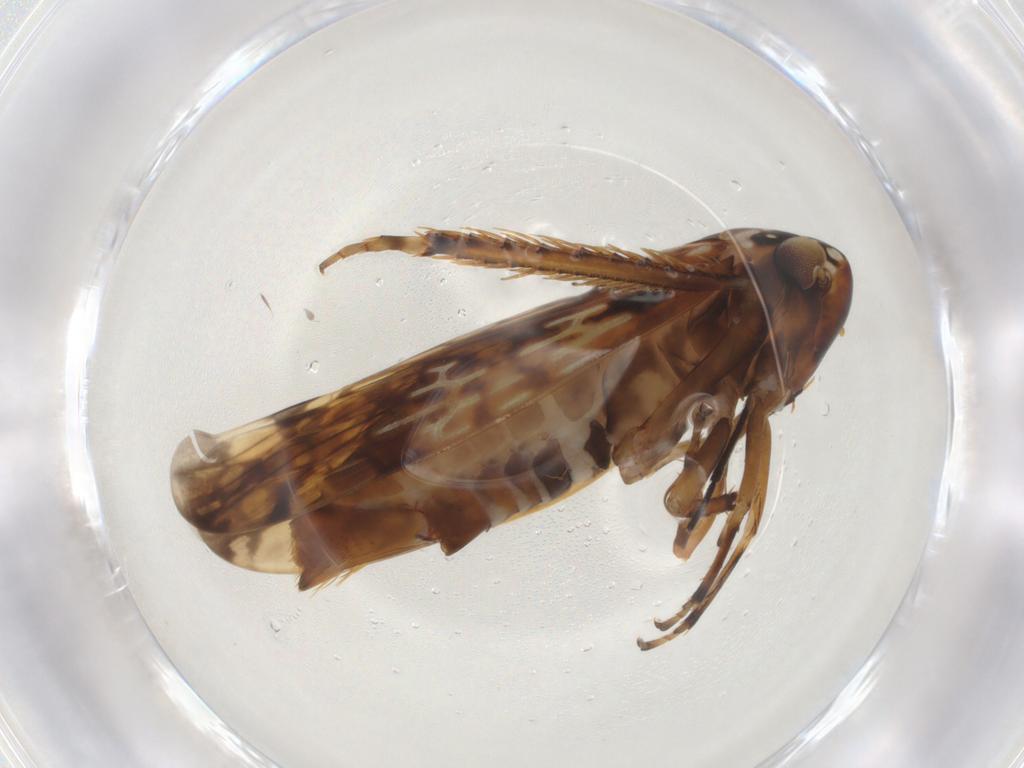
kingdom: Animalia
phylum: Arthropoda
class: Insecta
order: Hemiptera
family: Cicadellidae
